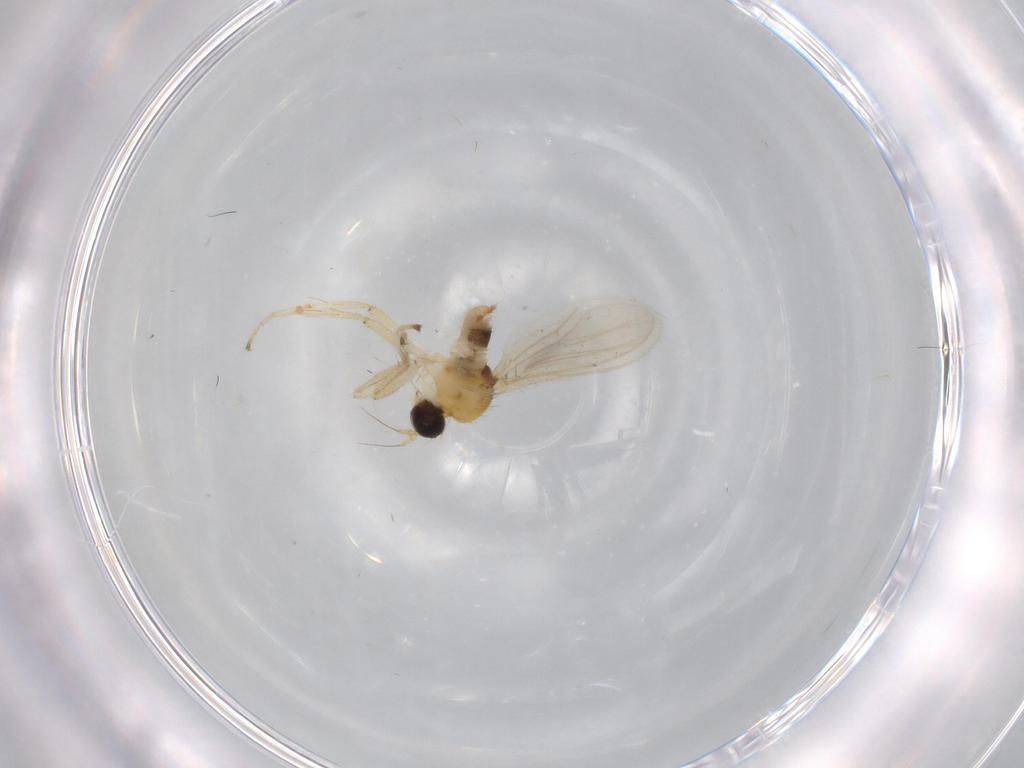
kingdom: Animalia
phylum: Arthropoda
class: Insecta
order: Diptera
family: Hybotidae
